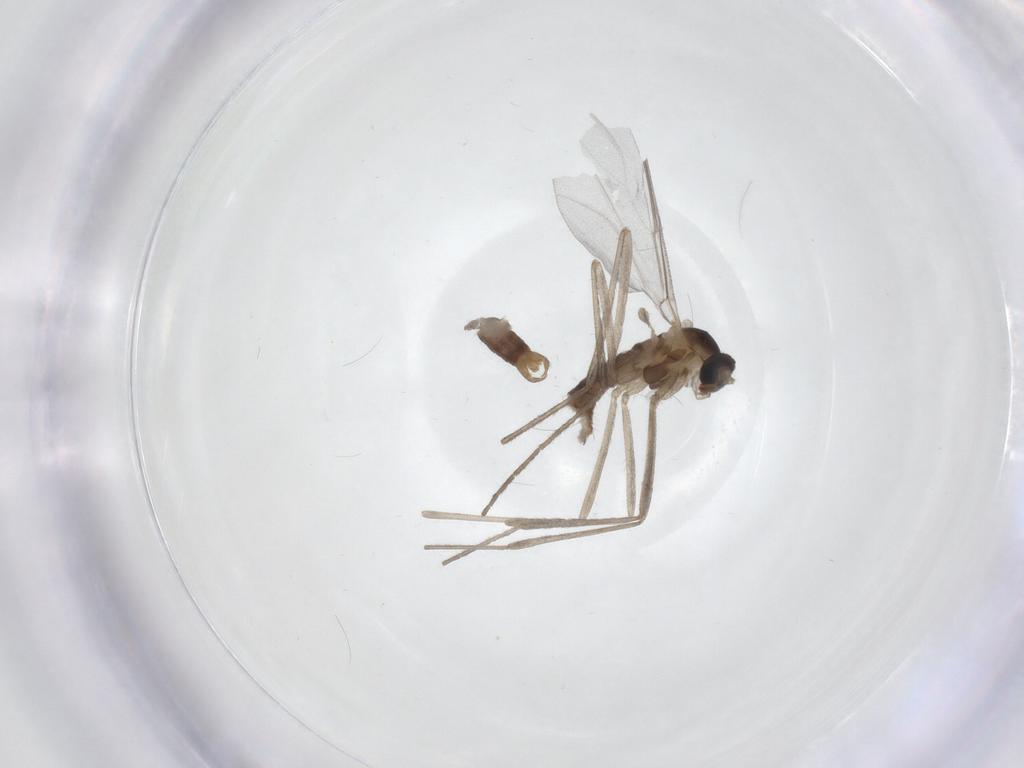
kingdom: Animalia
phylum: Arthropoda
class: Insecta
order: Diptera
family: Cecidomyiidae
